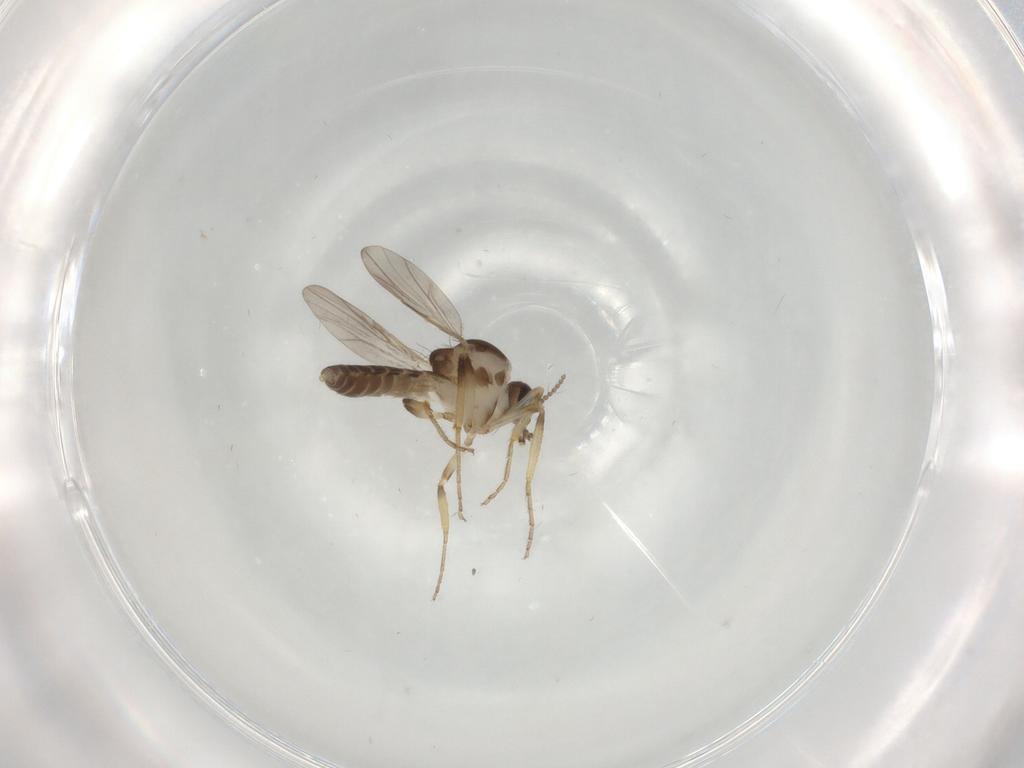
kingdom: Animalia
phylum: Arthropoda
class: Insecta
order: Diptera
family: Ceratopogonidae
